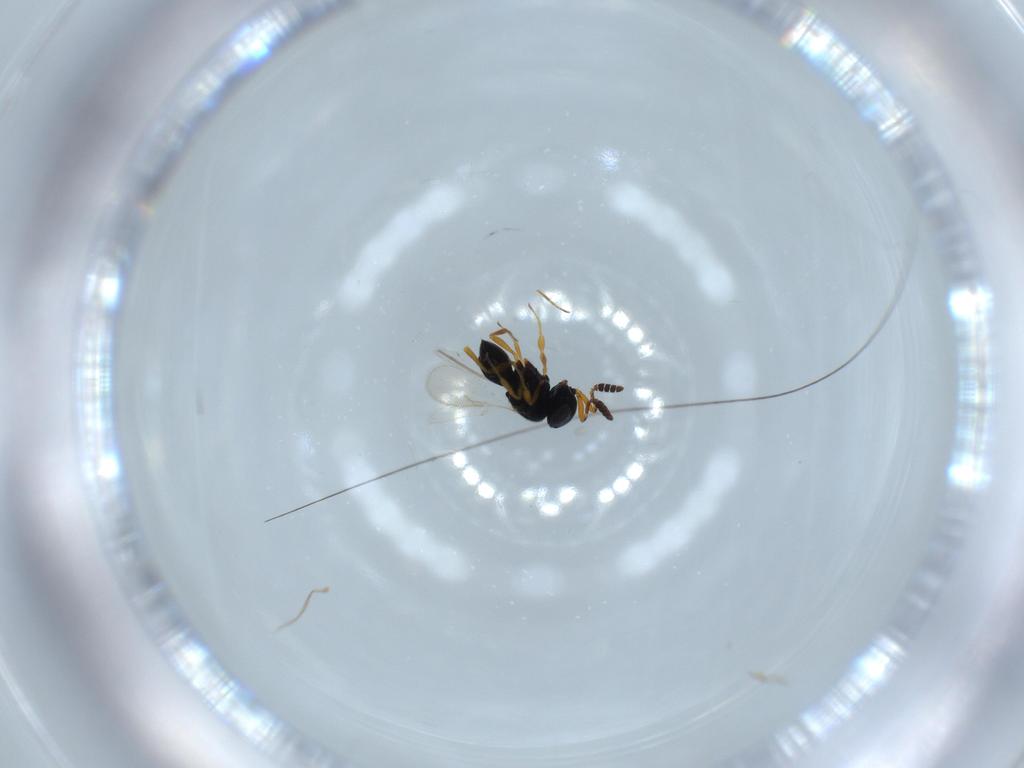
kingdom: Animalia
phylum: Arthropoda
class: Insecta
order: Hymenoptera
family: Scelionidae
